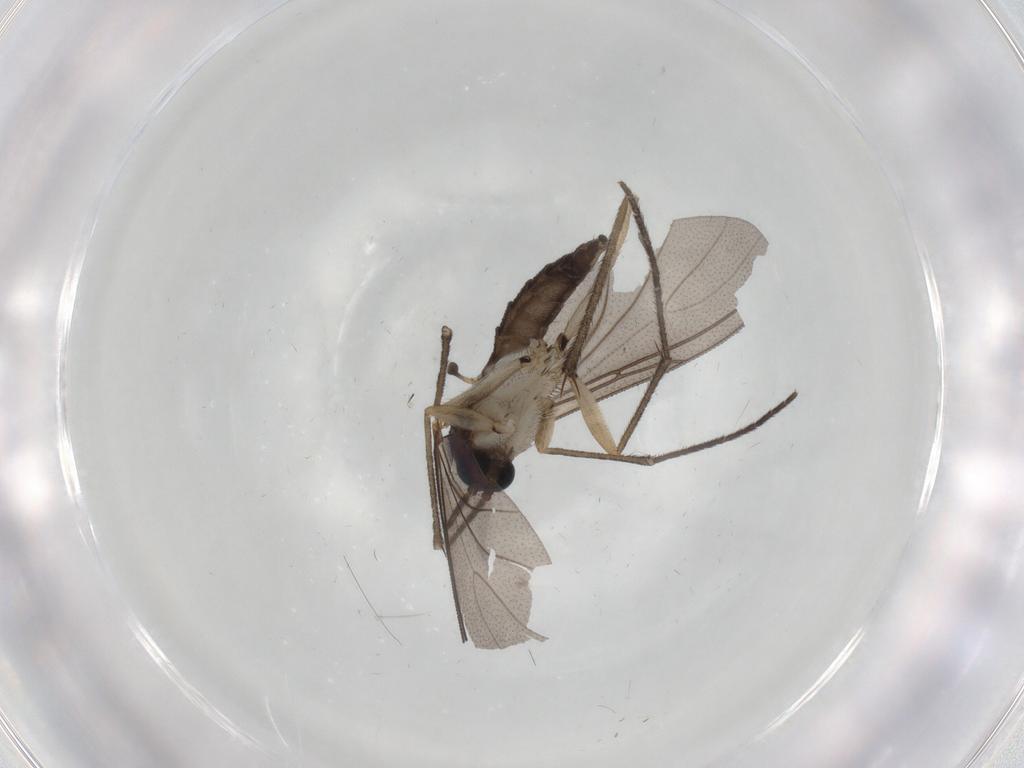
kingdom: Animalia
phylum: Arthropoda
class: Insecta
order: Diptera
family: Sciaridae
